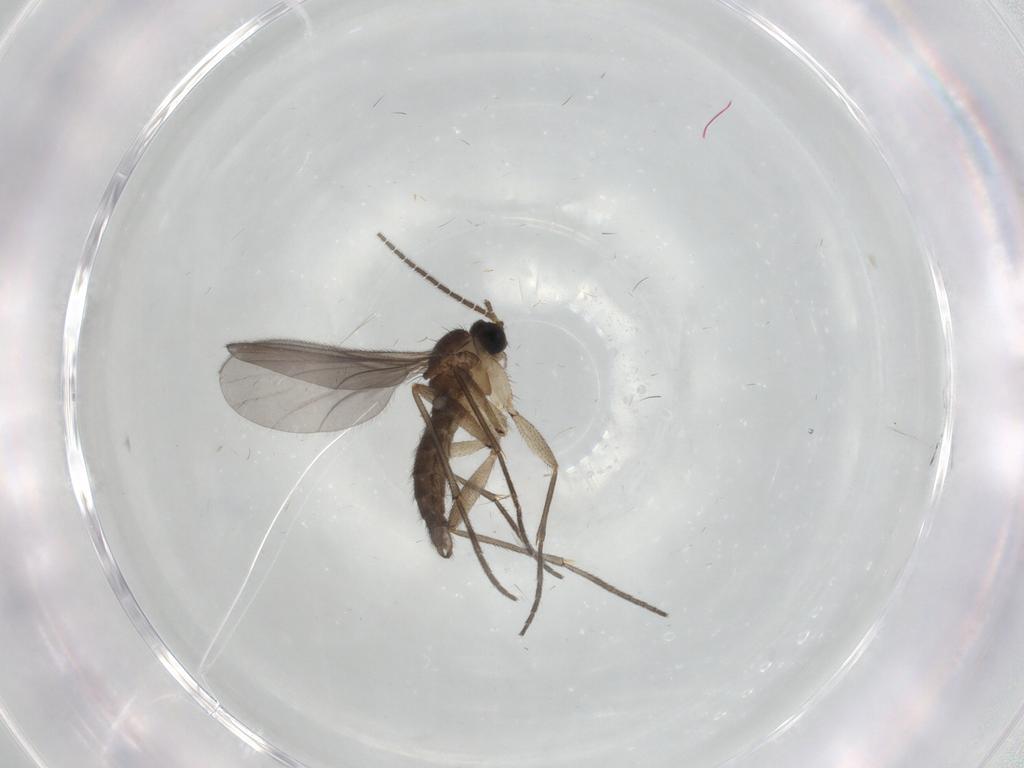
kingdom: Animalia
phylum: Arthropoda
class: Insecta
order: Diptera
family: Sciaridae
